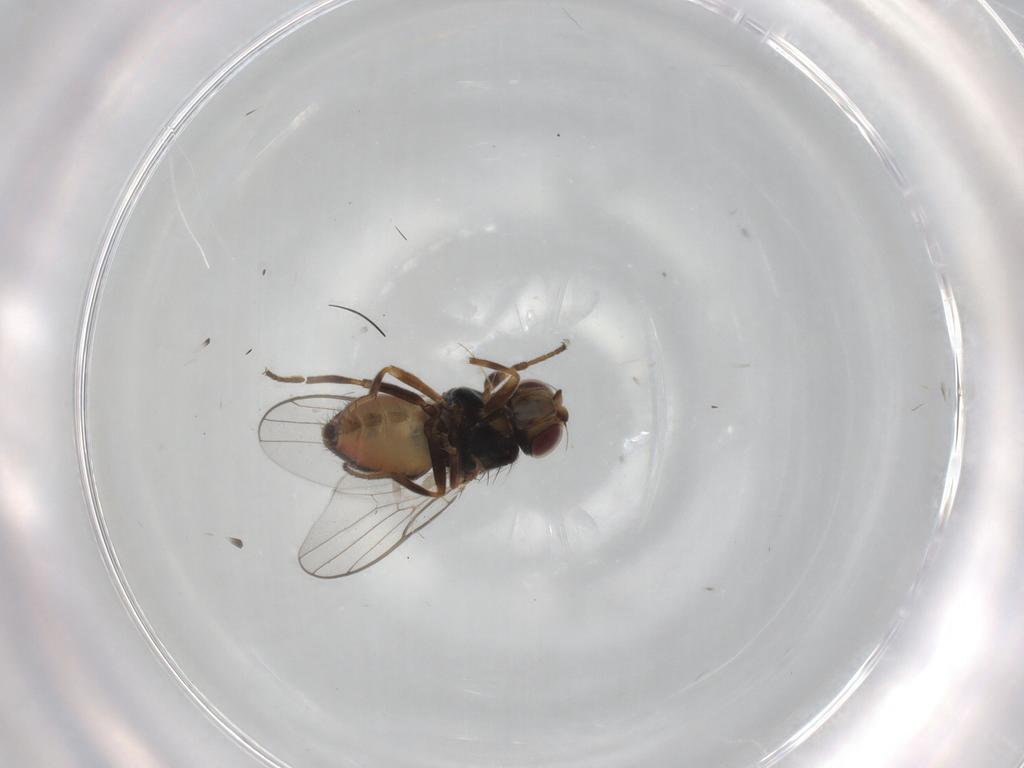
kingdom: Animalia
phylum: Arthropoda
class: Insecta
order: Diptera
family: Chloropidae
